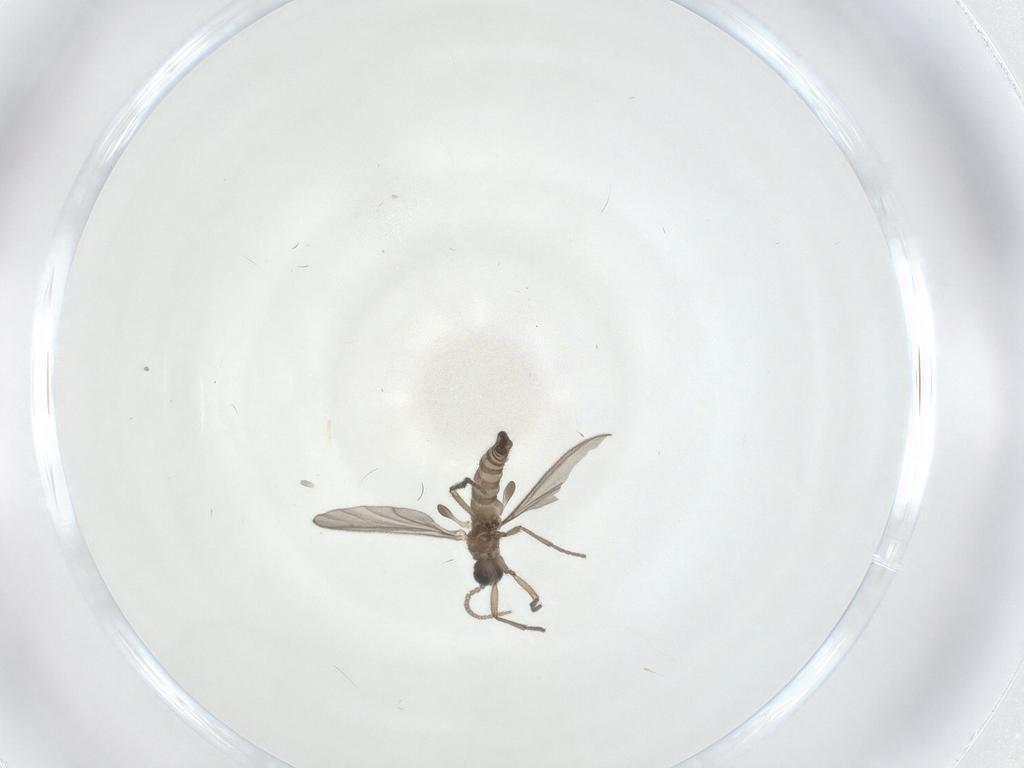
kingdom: Animalia
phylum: Arthropoda
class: Insecta
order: Diptera
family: Sciaridae
